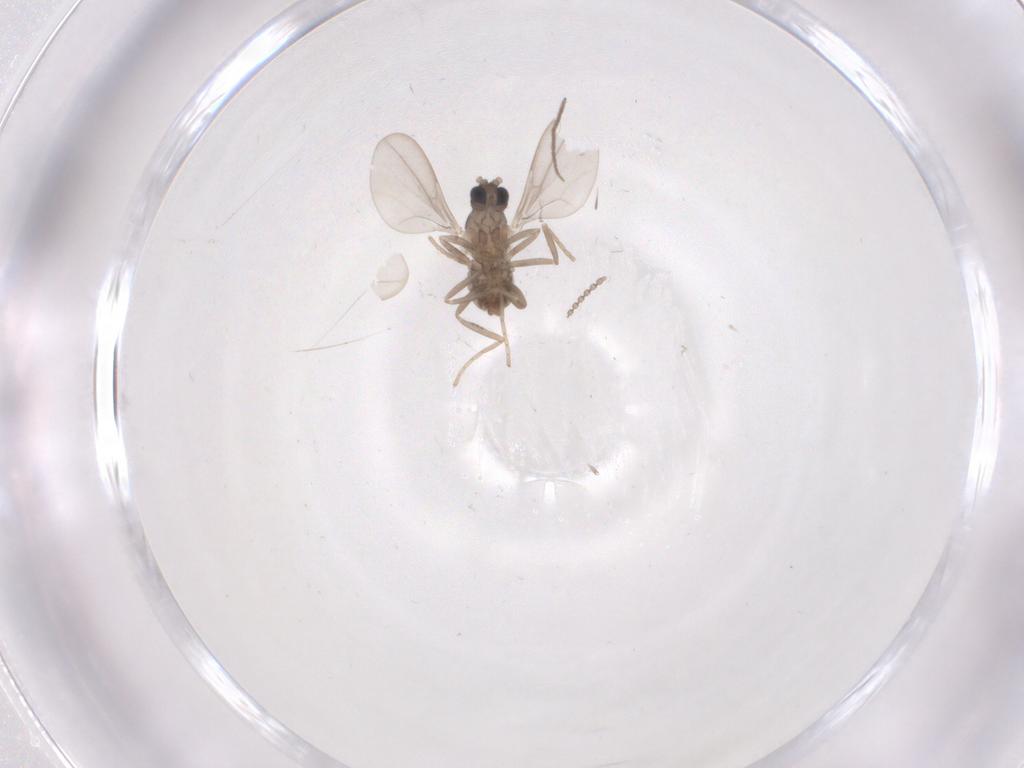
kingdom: Animalia
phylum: Arthropoda
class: Insecta
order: Diptera
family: Cecidomyiidae
